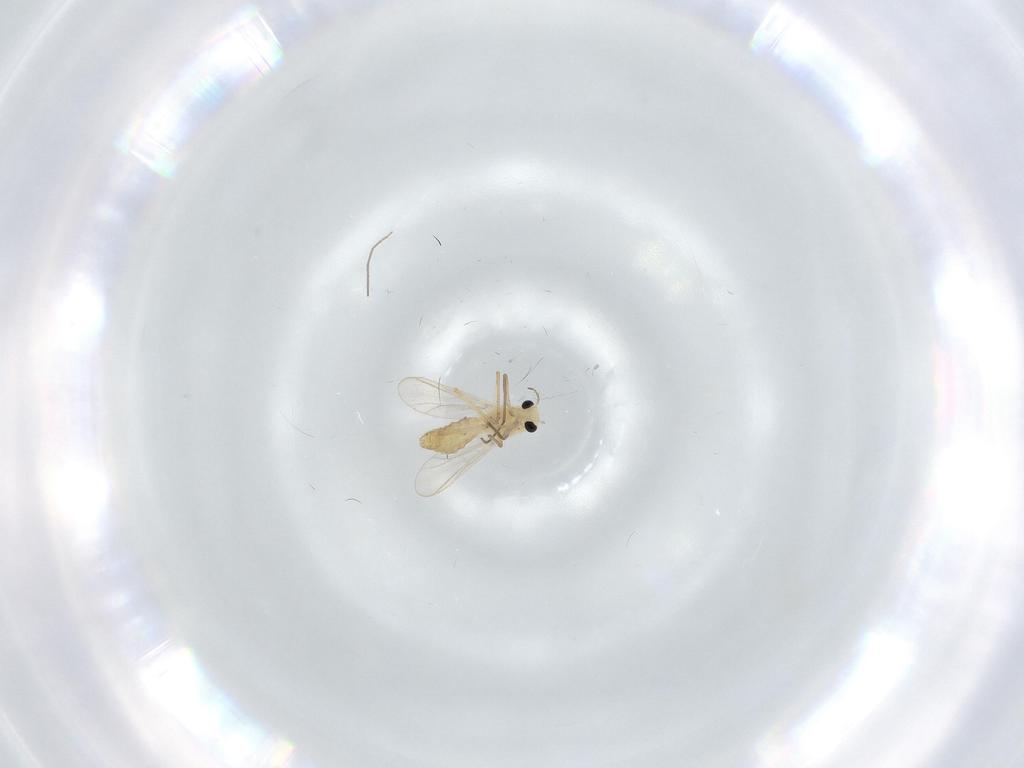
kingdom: Animalia
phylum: Arthropoda
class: Insecta
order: Diptera
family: Chironomidae
